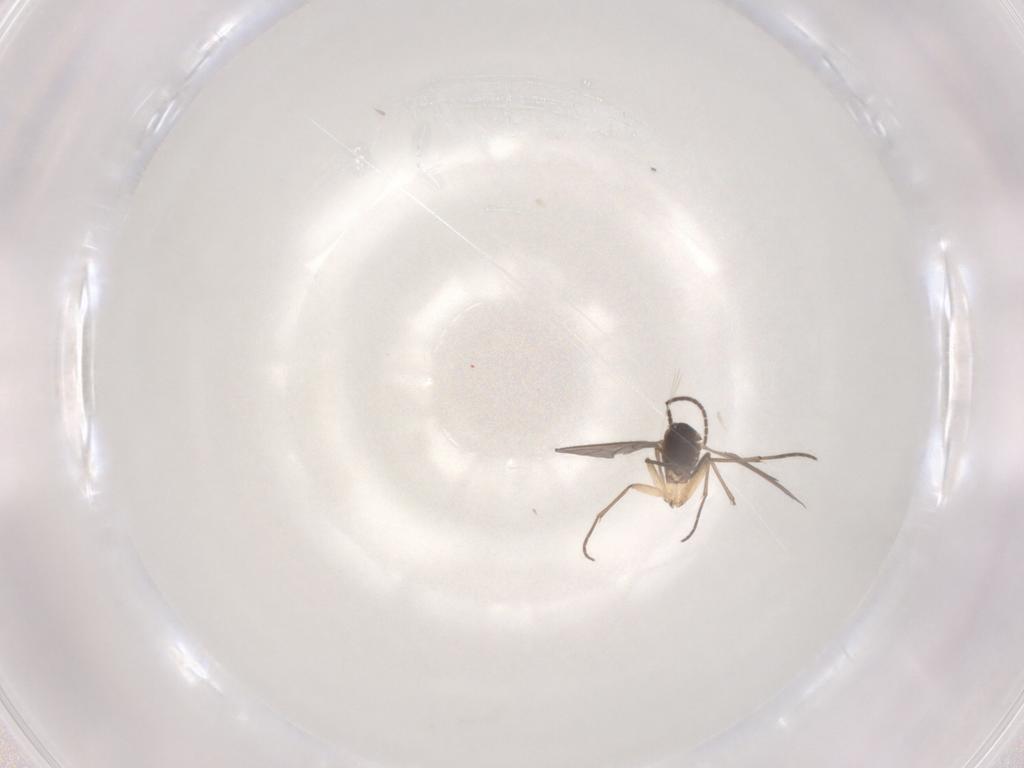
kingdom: Animalia
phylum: Arthropoda
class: Insecta
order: Diptera
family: Sciaridae
